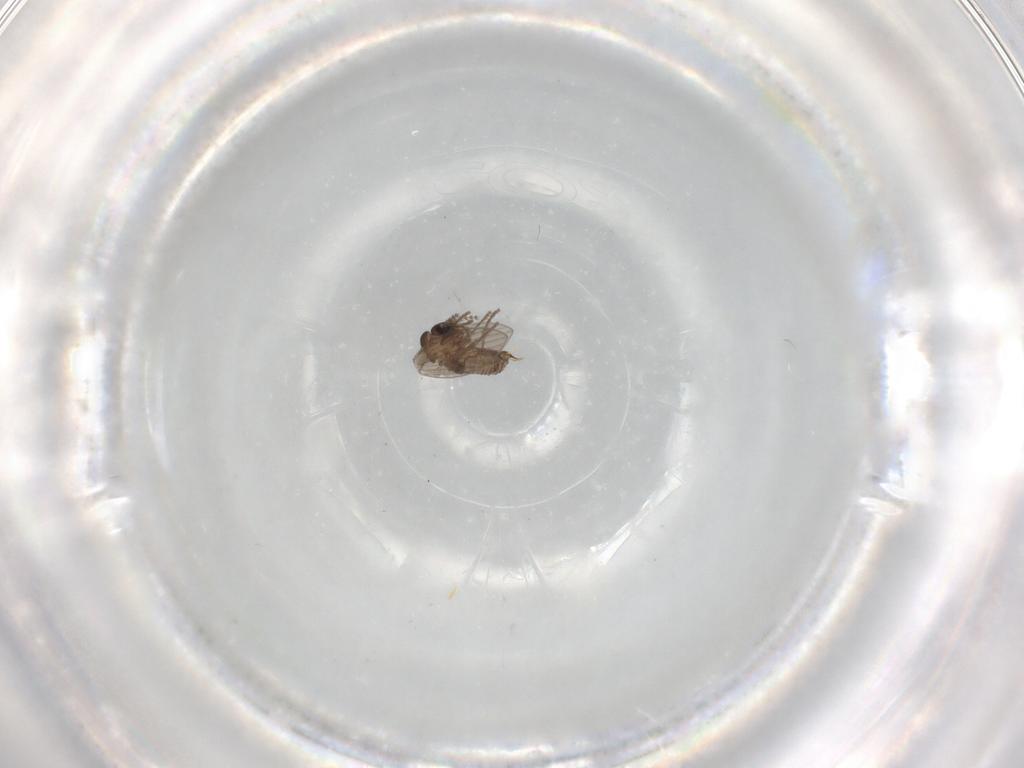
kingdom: Animalia
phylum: Arthropoda
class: Insecta
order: Diptera
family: Psychodidae
